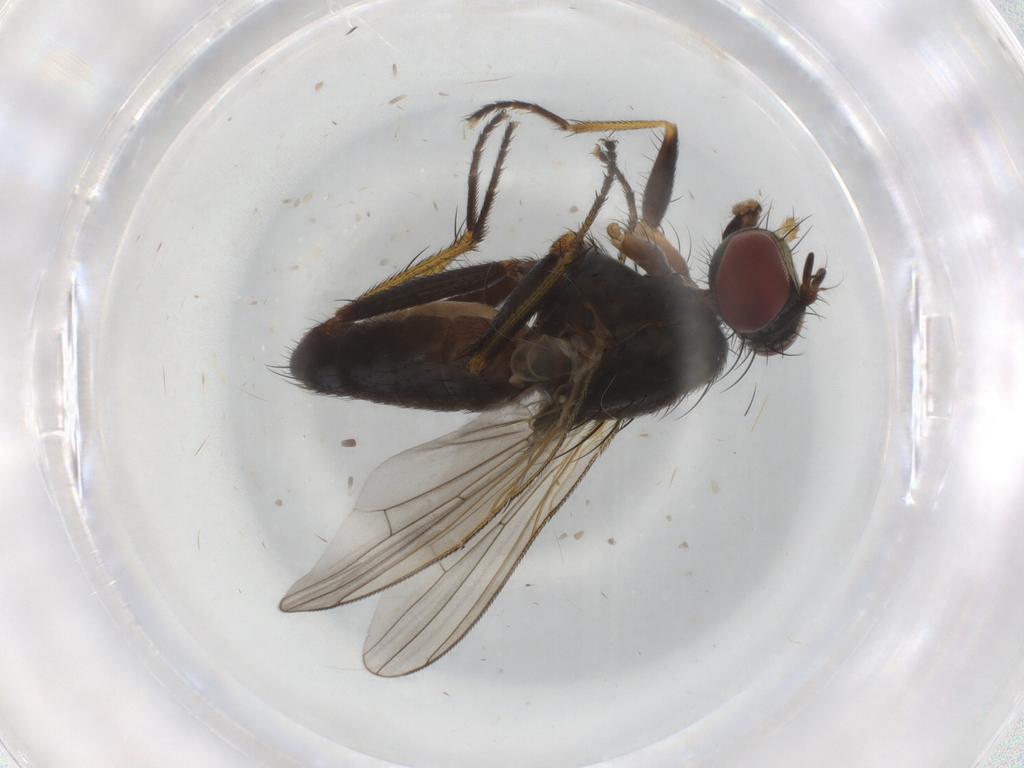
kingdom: Animalia
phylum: Arthropoda
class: Insecta
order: Diptera
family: Muscidae
